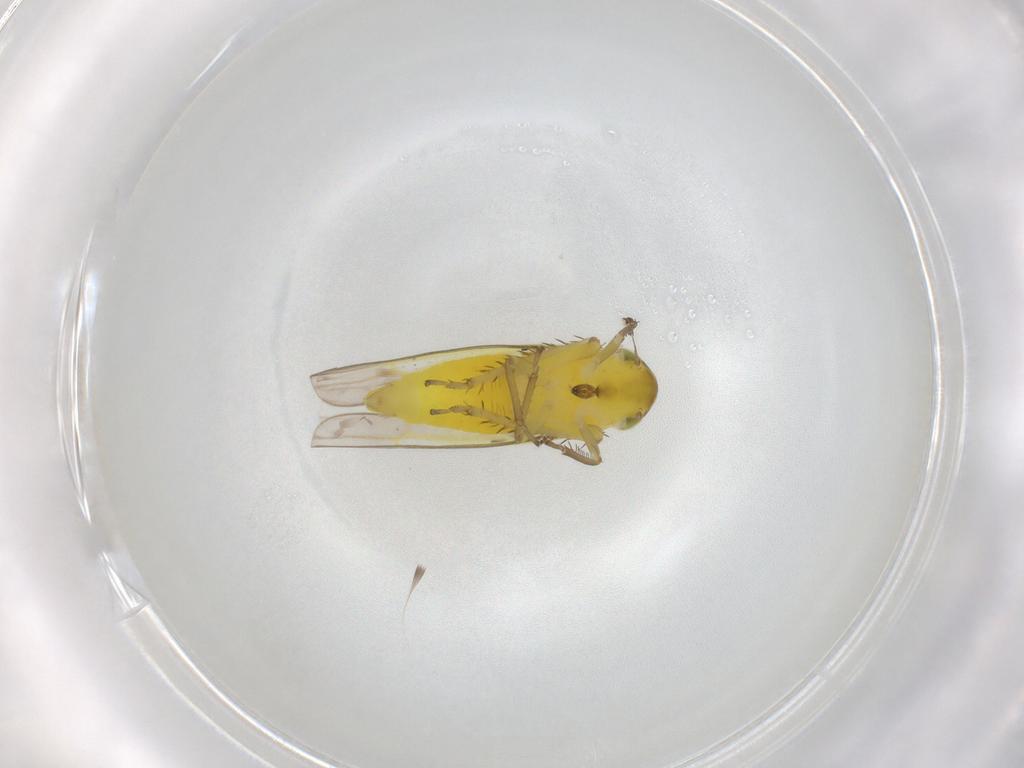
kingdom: Animalia
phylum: Arthropoda
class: Insecta
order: Hemiptera
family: Cicadellidae
